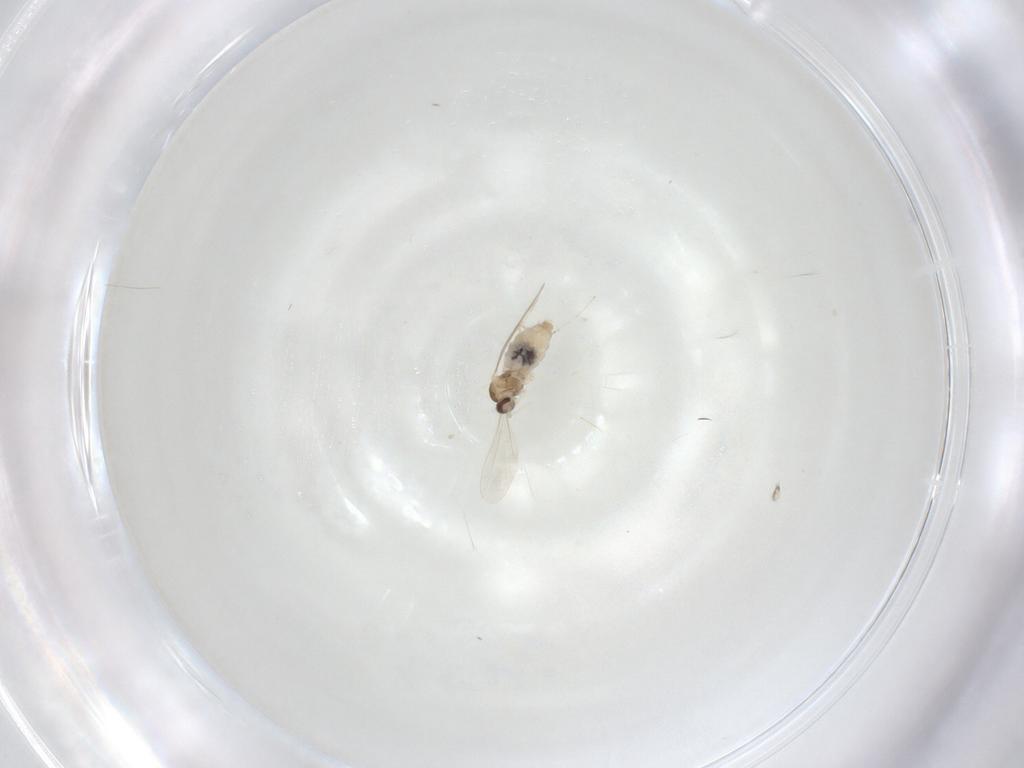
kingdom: Animalia
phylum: Arthropoda
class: Insecta
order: Diptera
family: Cecidomyiidae
